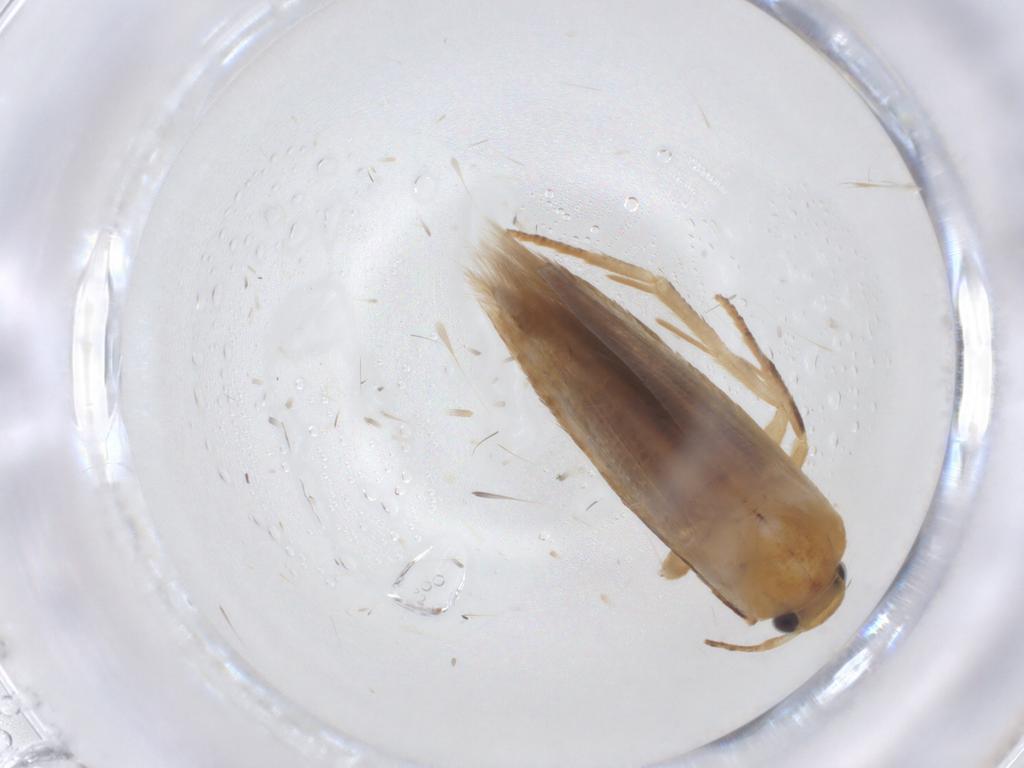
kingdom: Animalia
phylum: Arthropoda
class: Insecta
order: Lepidoptera
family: Stathmopodidae
